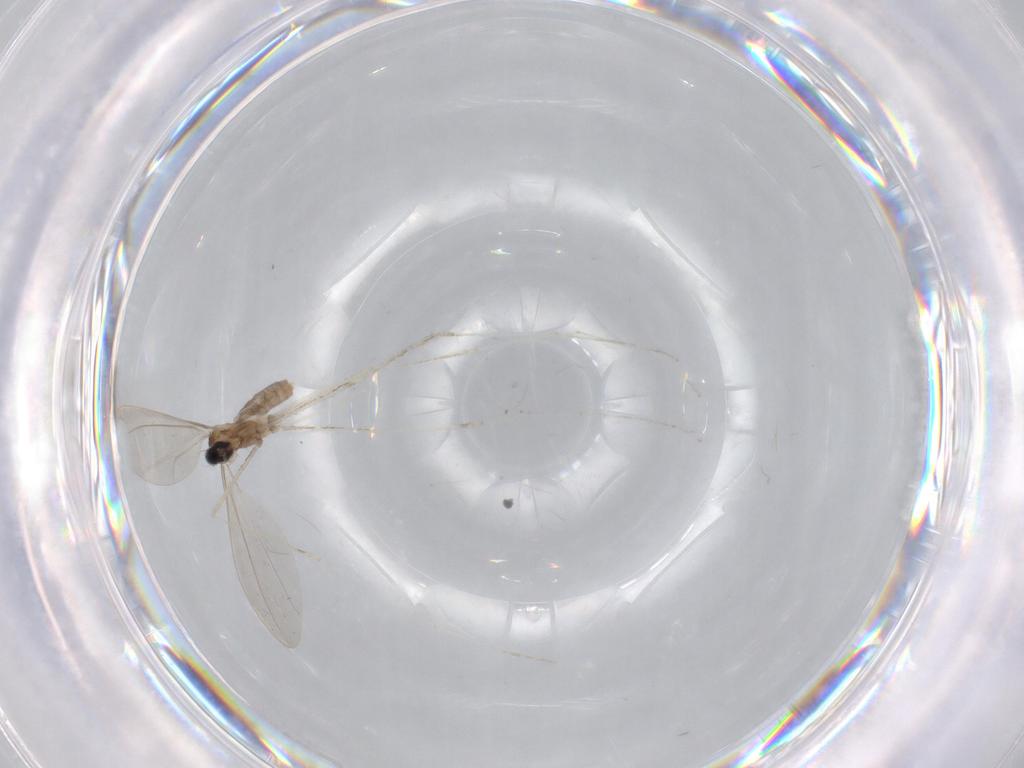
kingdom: Animalia
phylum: Arthropoda
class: Insecta
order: Diptera
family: Cecidomyiidae
